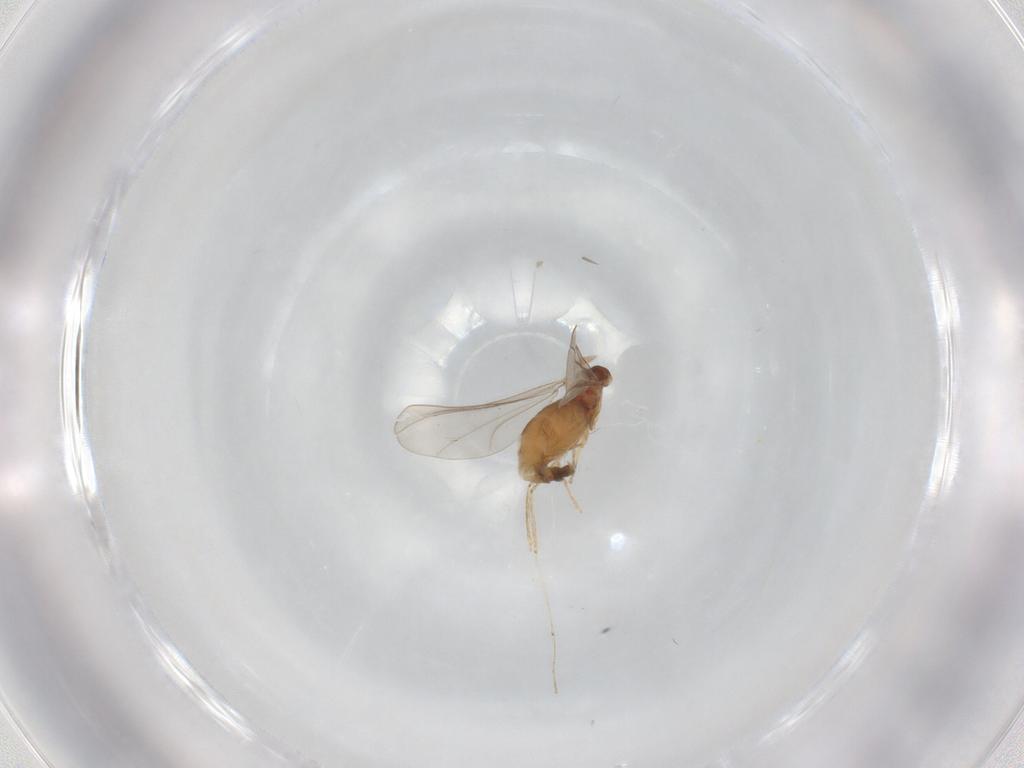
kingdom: Animalia
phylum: Arthropoda
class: Insecta
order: Diptera
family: Cecidomyiidae
